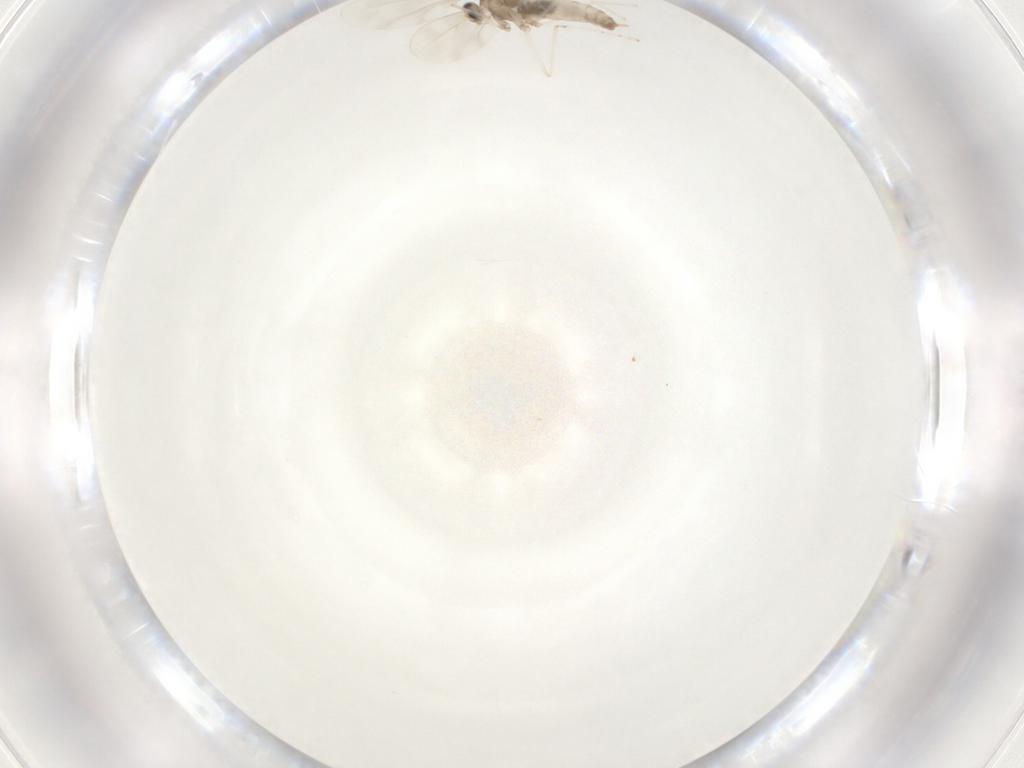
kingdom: Animalia
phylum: Arthropoda
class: Insecta
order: Diptera
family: Cecidomyiidae
